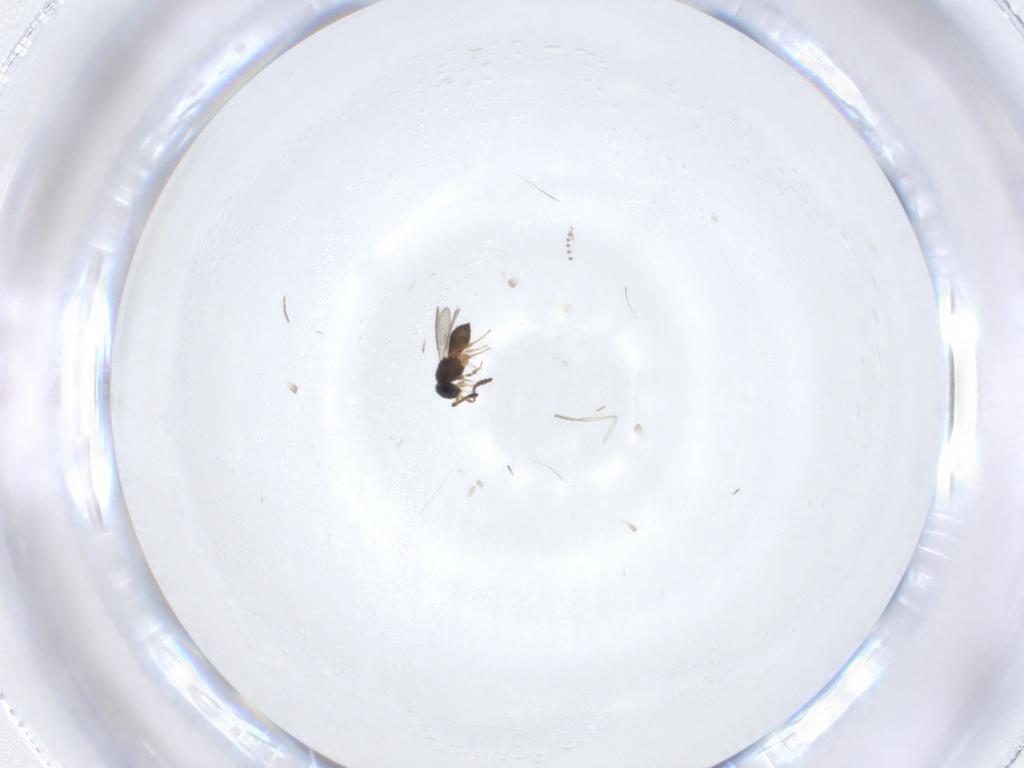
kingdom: Animalia
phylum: Arthropoda
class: Insecta
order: Hymenoptera
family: Scelionidae
